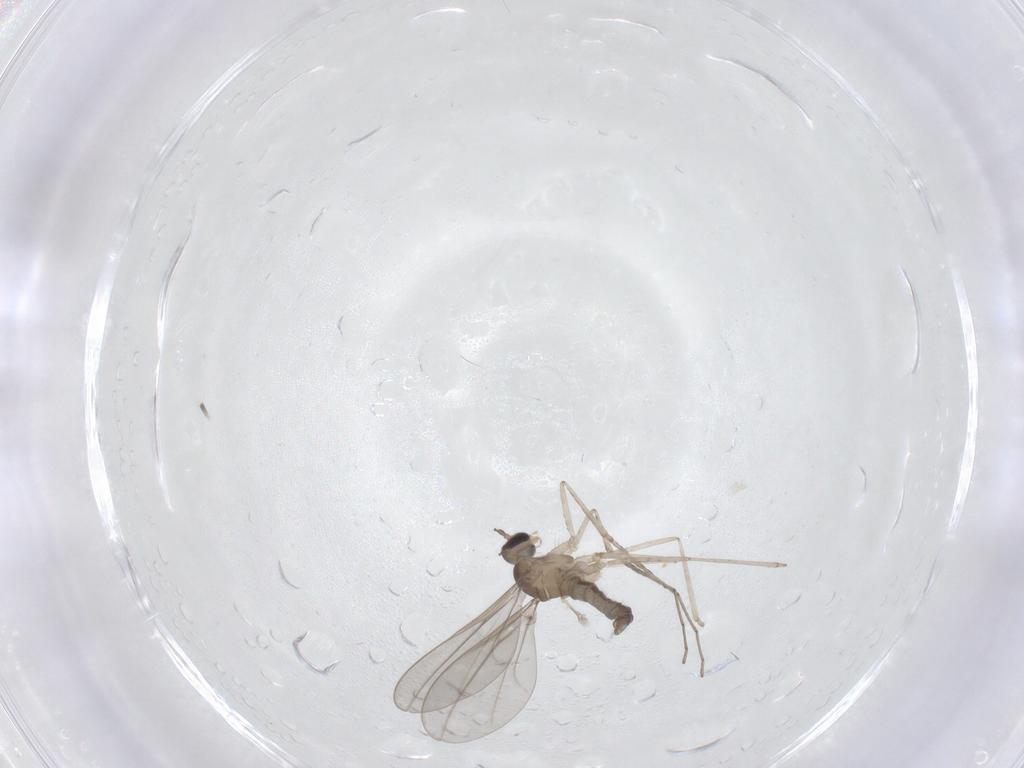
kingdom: Animalia
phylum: Arthropoda
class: Insecta
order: Diptera
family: Cecidomyiidae
